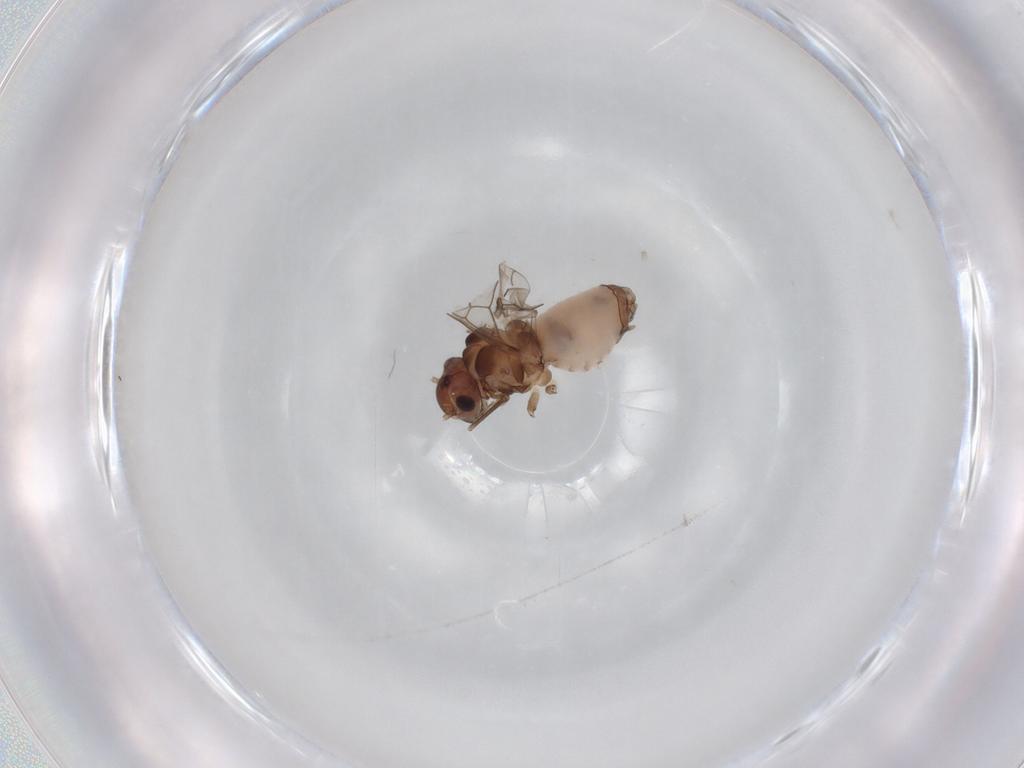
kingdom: Animalia
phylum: Arthropoda
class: Insecta
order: Psocodea
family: Peripsocidae
